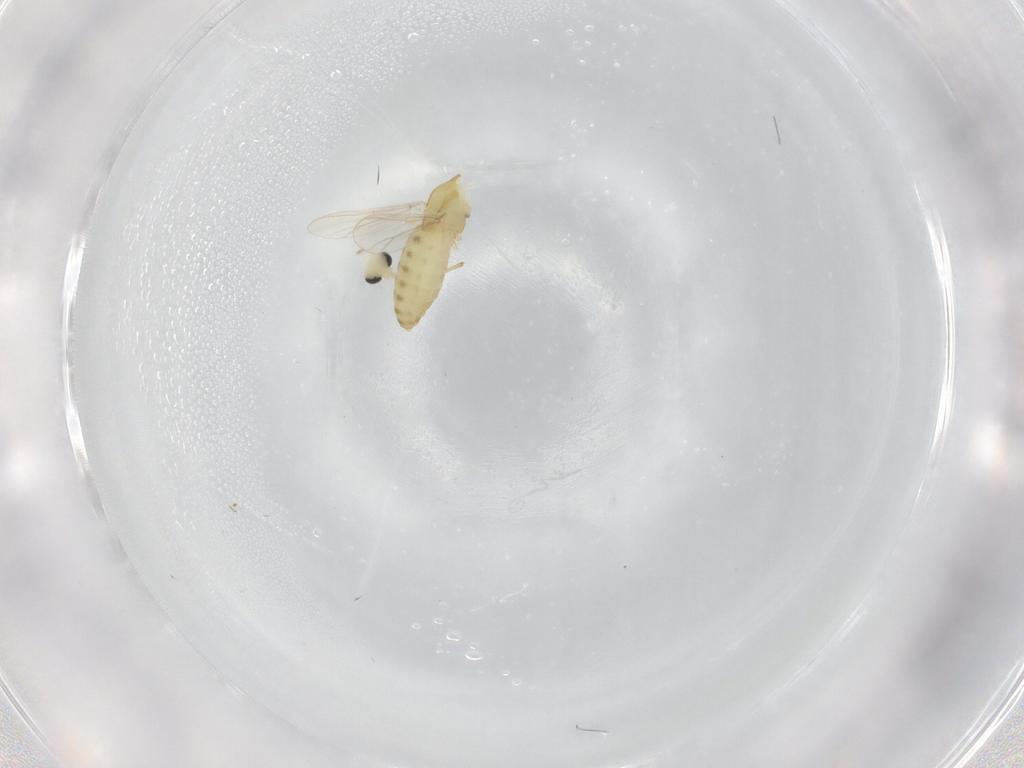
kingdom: Animalia
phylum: Arthropoda
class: Insecta
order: Diptera
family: Chironomidae
